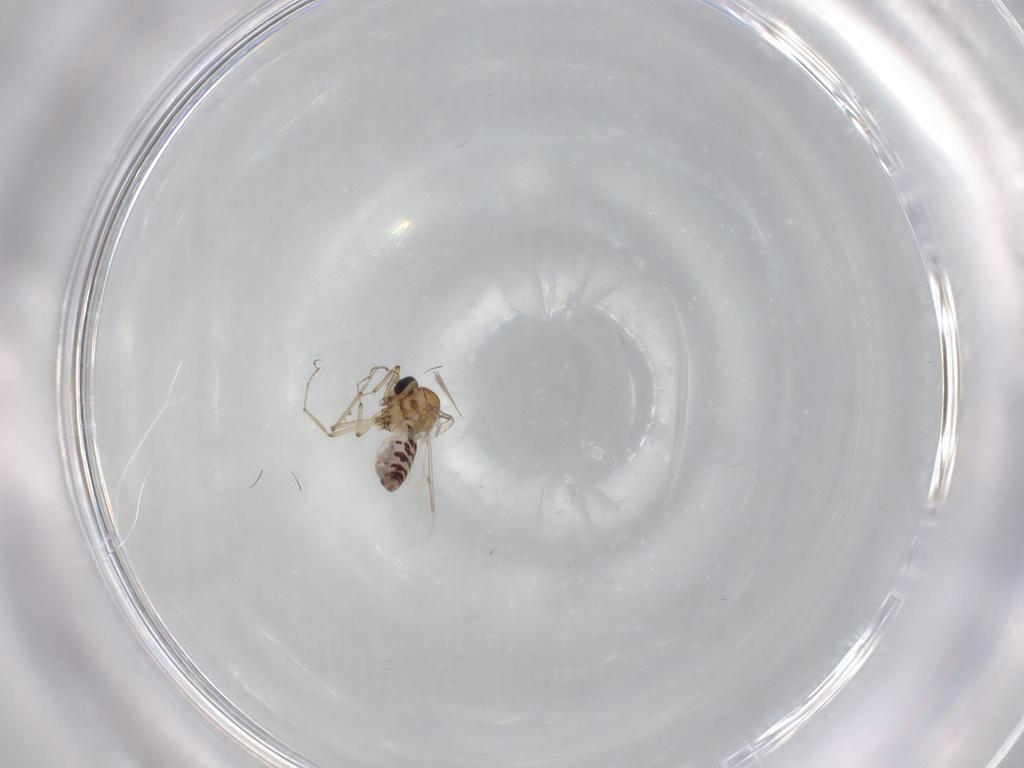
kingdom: Animalia
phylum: Arthropoda
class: Insecta
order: Diptera
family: Ceratopogonidae
